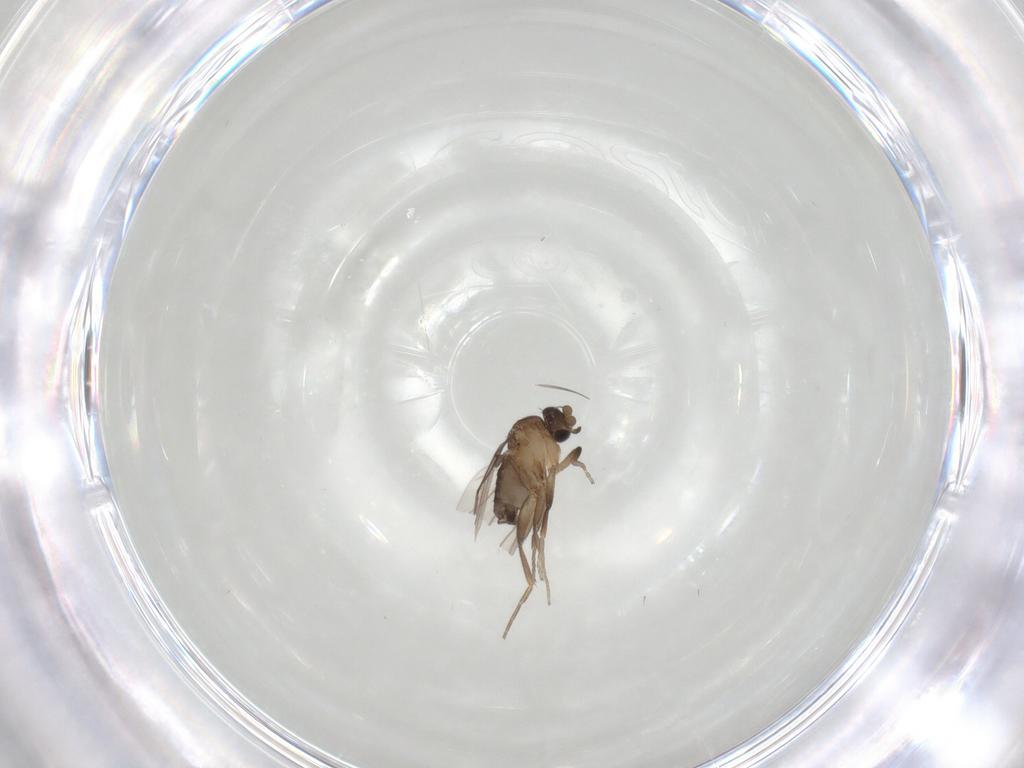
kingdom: Animalia
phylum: Arthropoda
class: Insecta
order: Diptera
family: Phoridae
